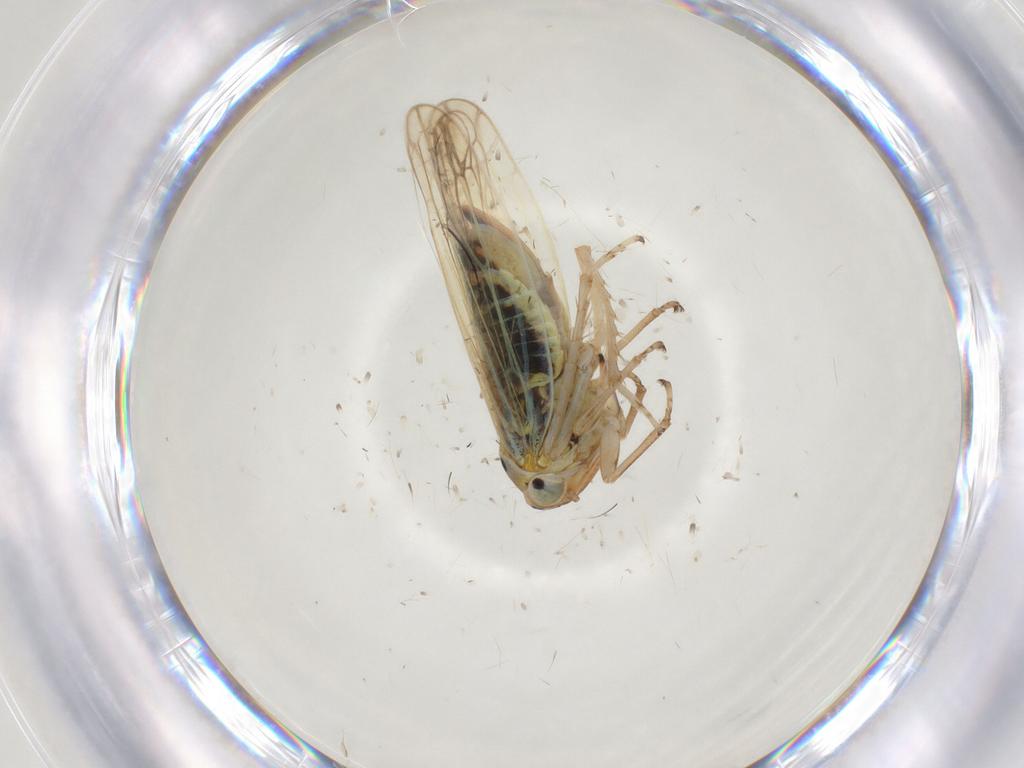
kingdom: Animalia
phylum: Arthropoda
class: Insecta
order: Hemiptera
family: Cicadellidae
